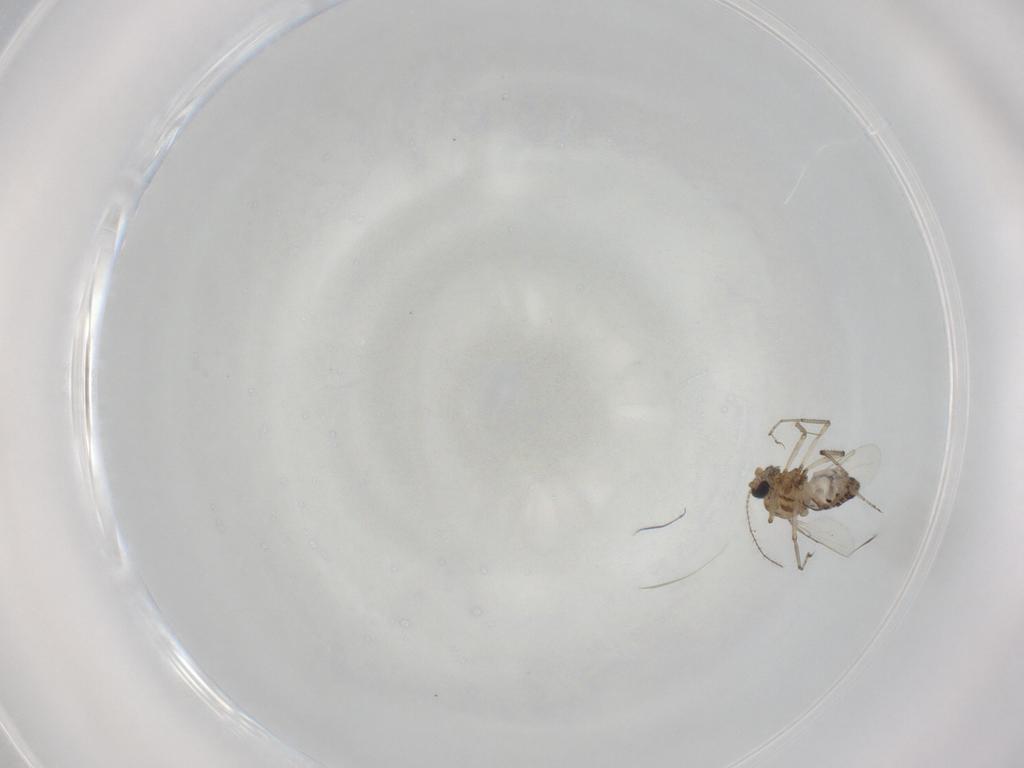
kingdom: Animalia
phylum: Arthropoda
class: Insecta
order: Diptera
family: Ceratopogonidae
